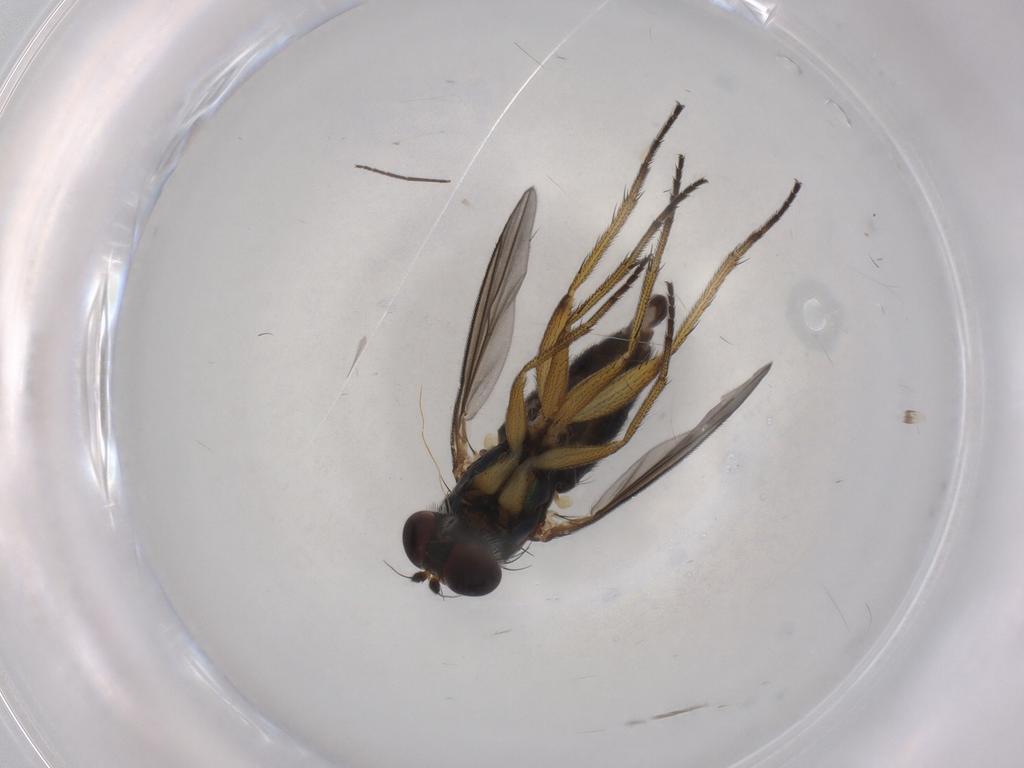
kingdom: Animalia
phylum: Arthropoda
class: Insecta
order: Diptera
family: Chironomidae
